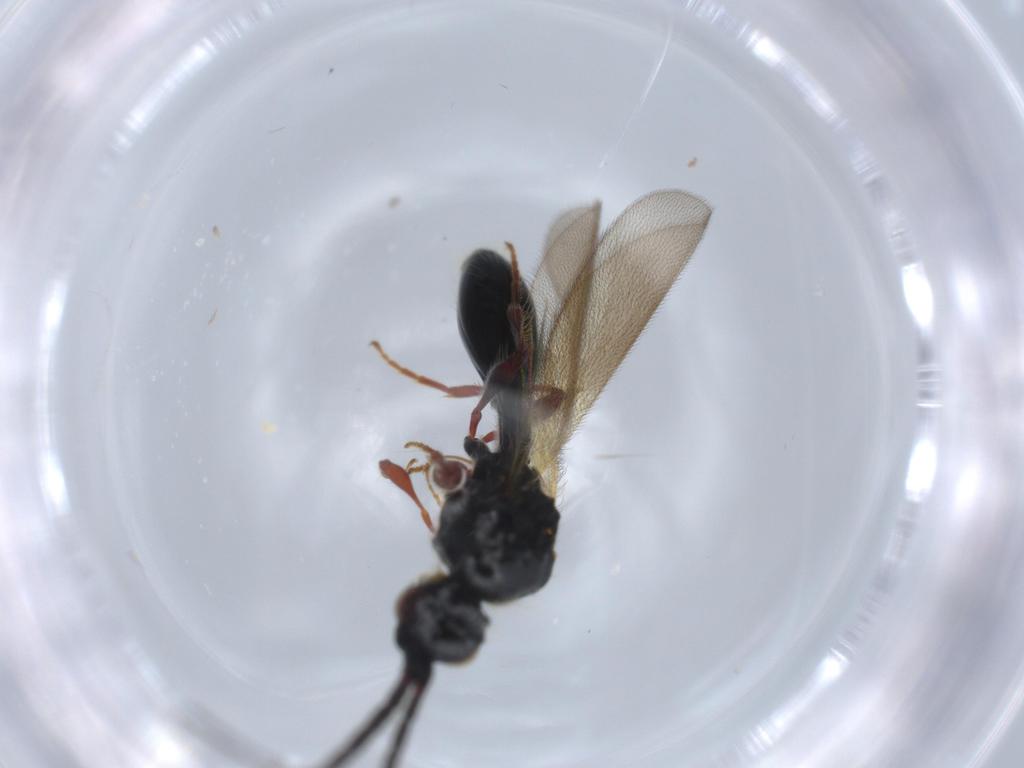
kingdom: Animalia
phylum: Arthropoda
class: Insecta
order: Hymenoptera
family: Diapriidae
